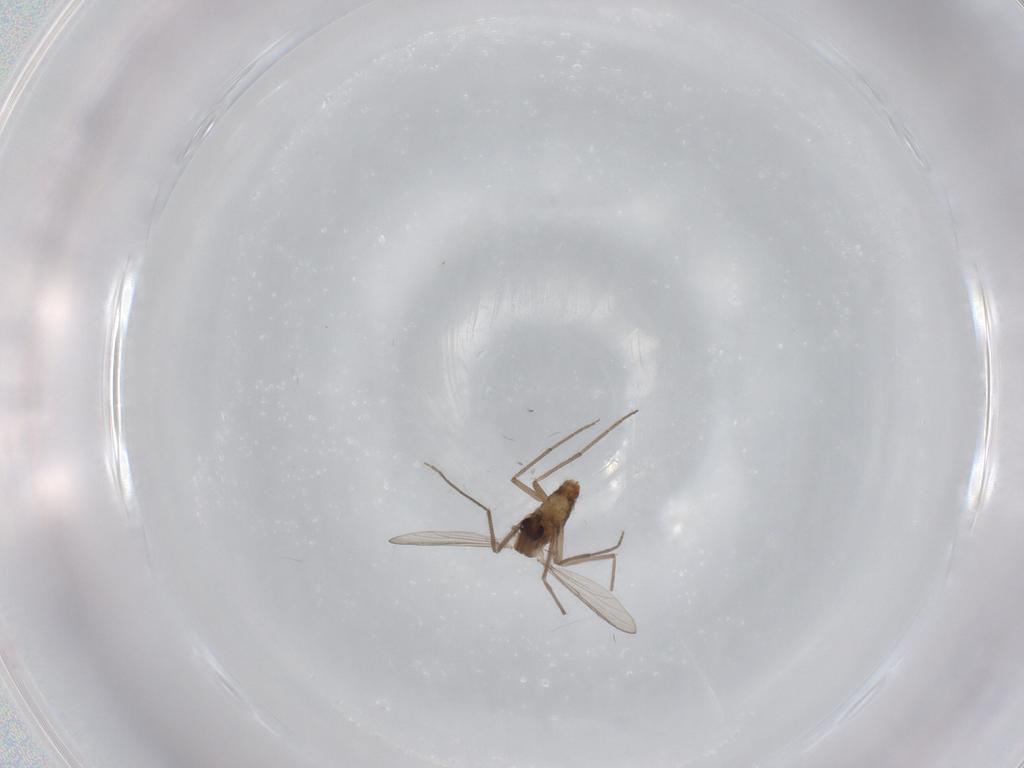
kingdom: Animalia
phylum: Arthropoda
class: Insecta
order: Diptera
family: Chironomidae
